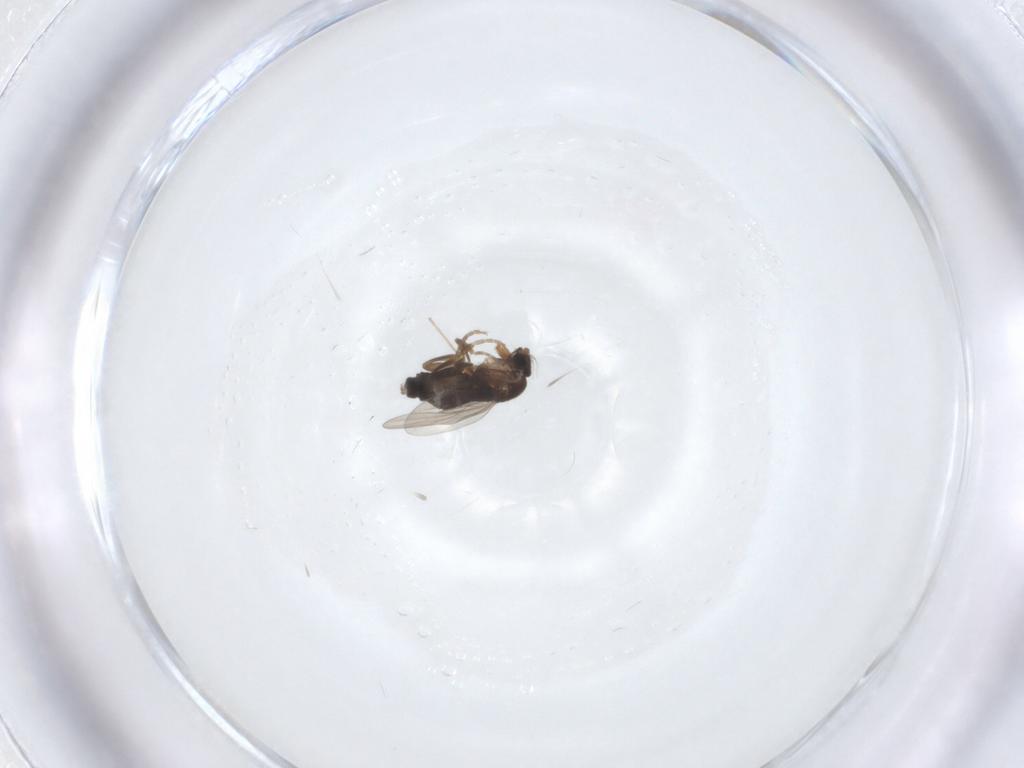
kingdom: Animalia
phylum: Arthropoda
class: Insecta
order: Diptera
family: Phoridae
